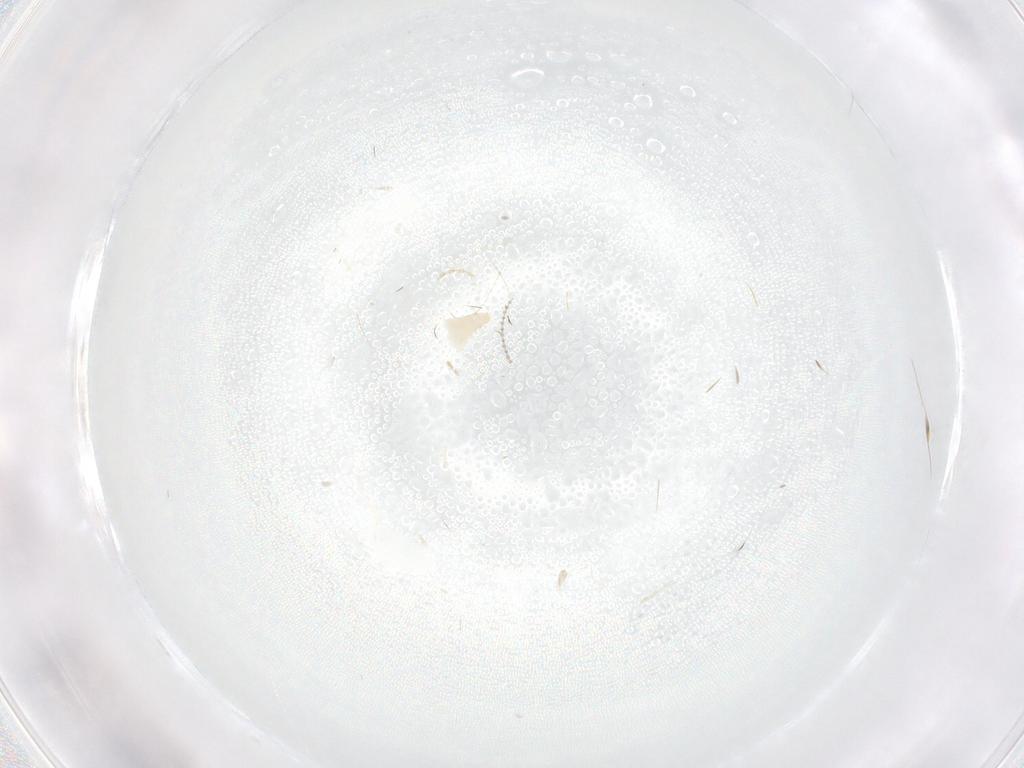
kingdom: Animalia
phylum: Arthropoda
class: Insecta
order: Diptera
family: Cecidomyiidae
